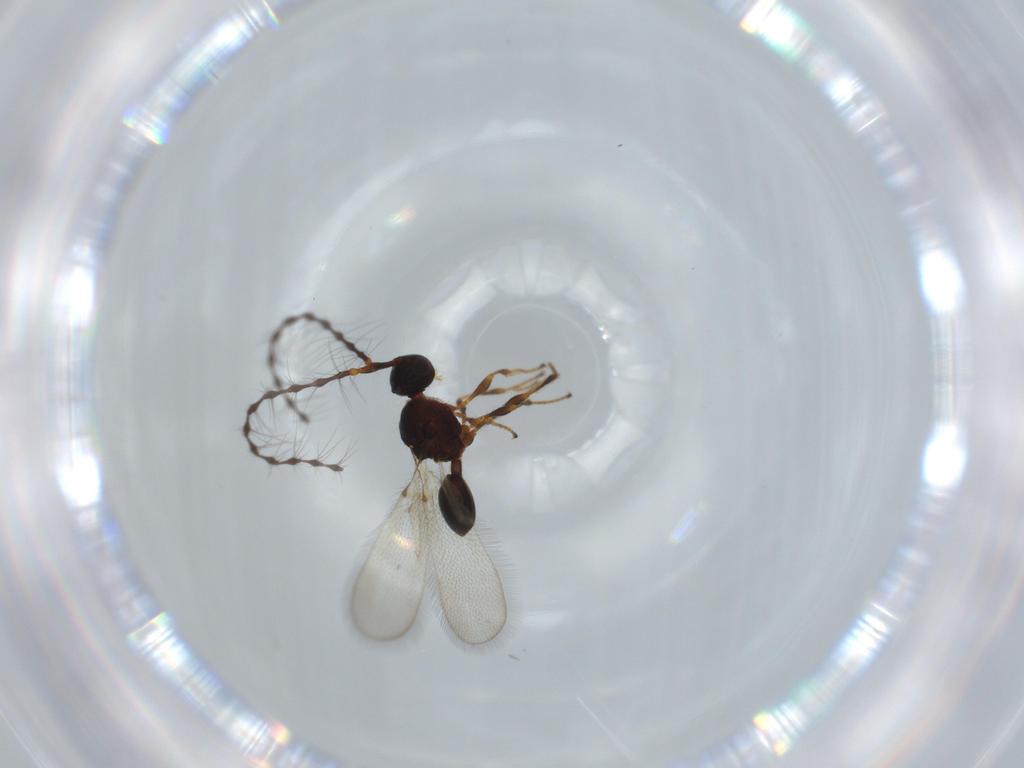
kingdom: Animalia
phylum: Arthropoda
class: Insecta
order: Hymenoptera
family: Diapriidae
